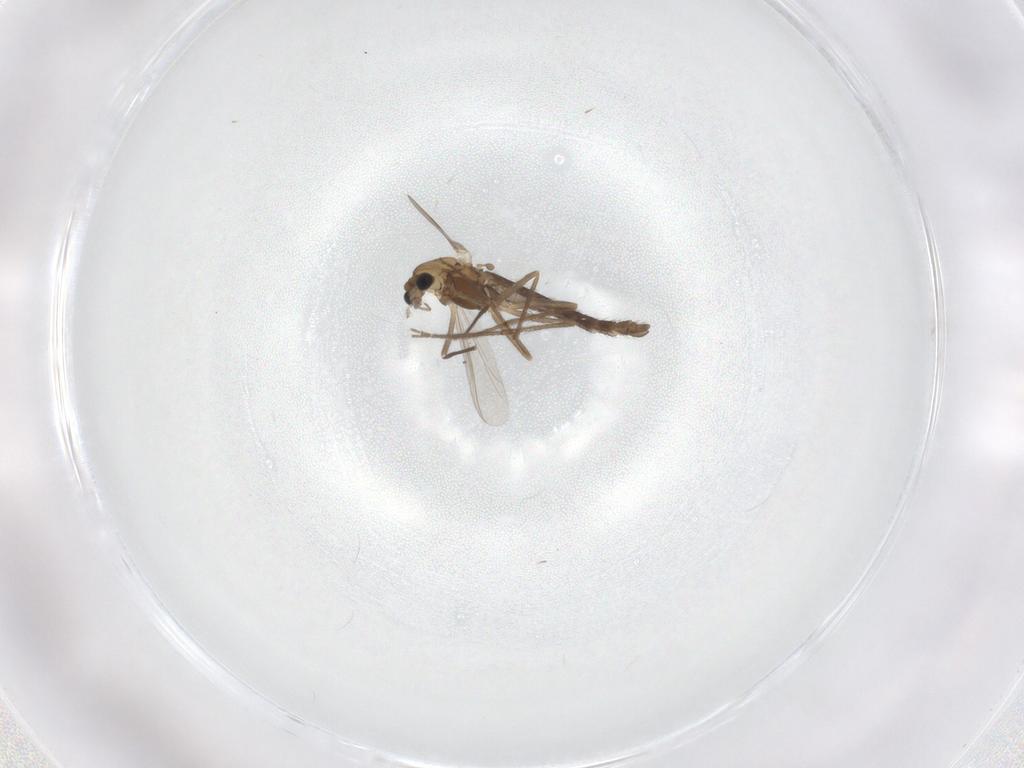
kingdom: Animalia
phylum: Arthropoda
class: Insecta
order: Diptera
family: Chironomidae
